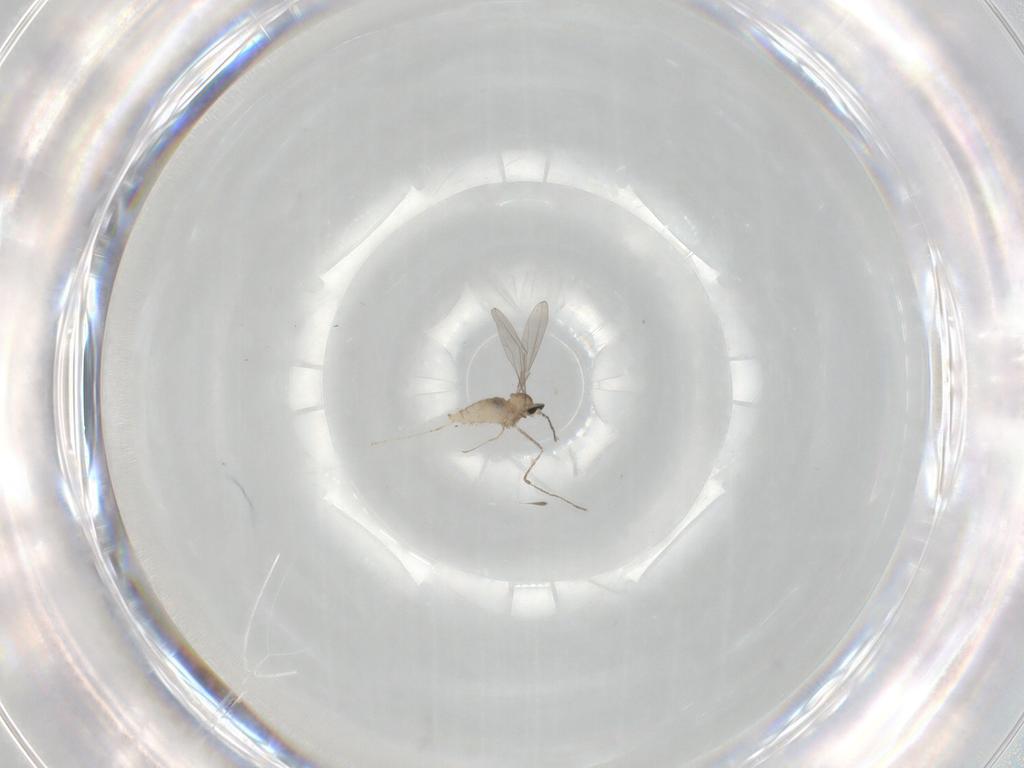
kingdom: Animalia
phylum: Arthropoda
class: Insecta
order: Diptera
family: Cecidomyiidae
